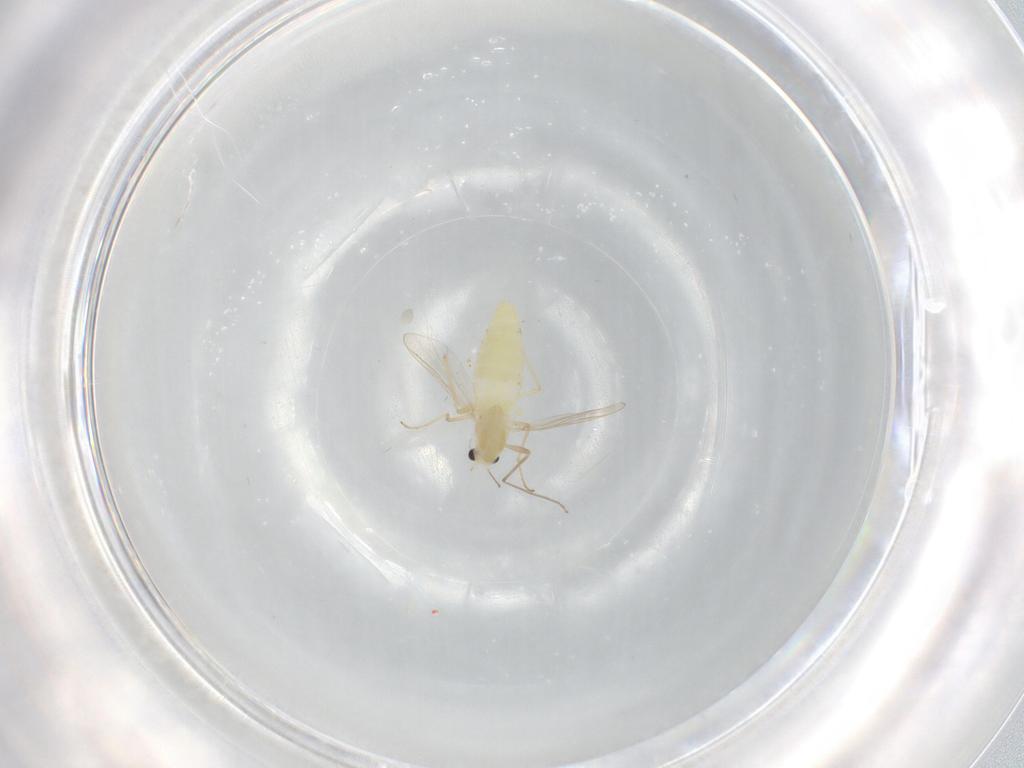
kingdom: Animalia
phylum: Arthropoda
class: Insecta
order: Diptera
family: Chironomidae
